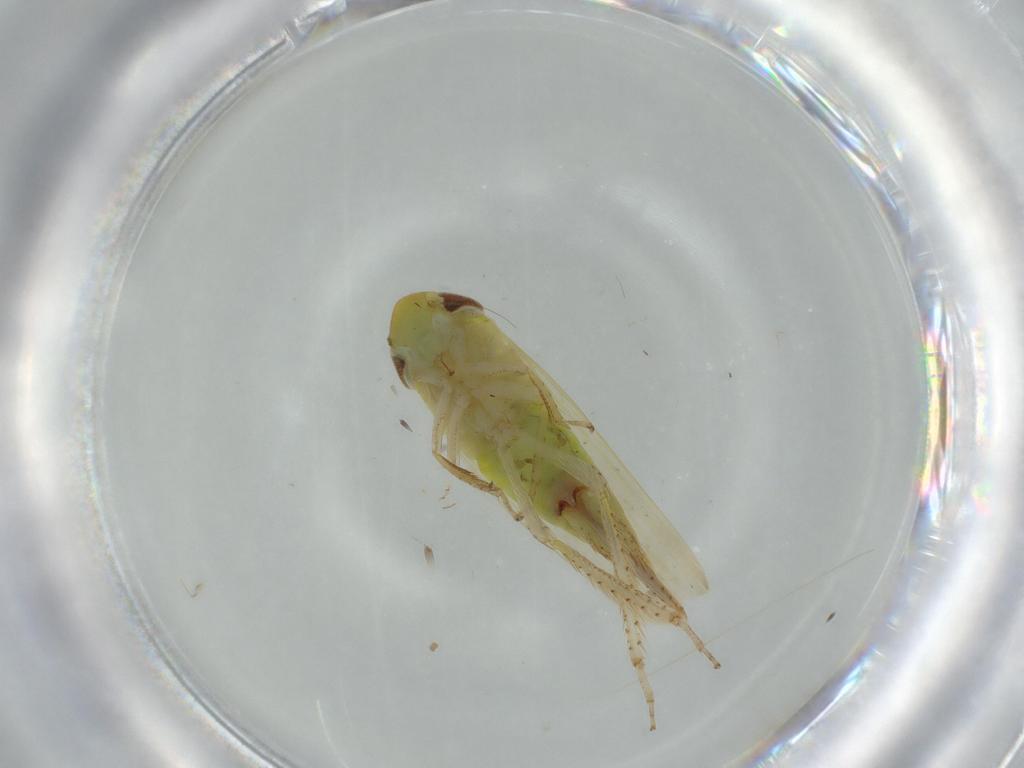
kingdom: Animalia
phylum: Arthropoda
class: Insecta
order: Hemiptera
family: Cicadellidae
